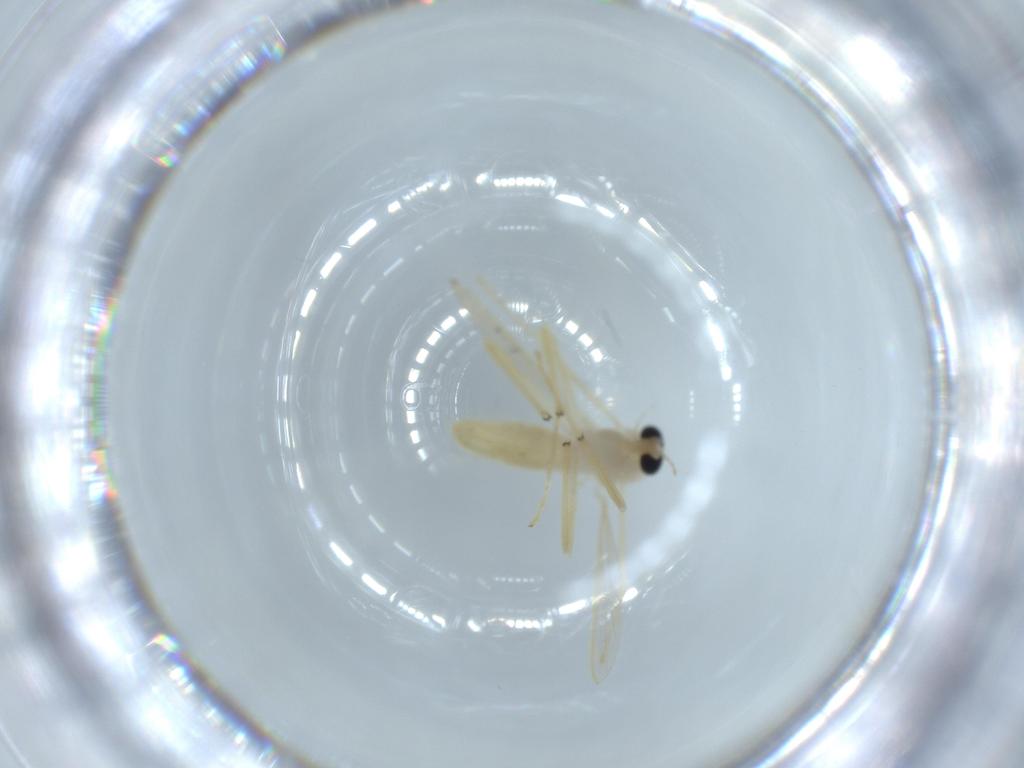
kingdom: Animalia
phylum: Arthropoda
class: Insecta
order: Diptera
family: Chironomidae
